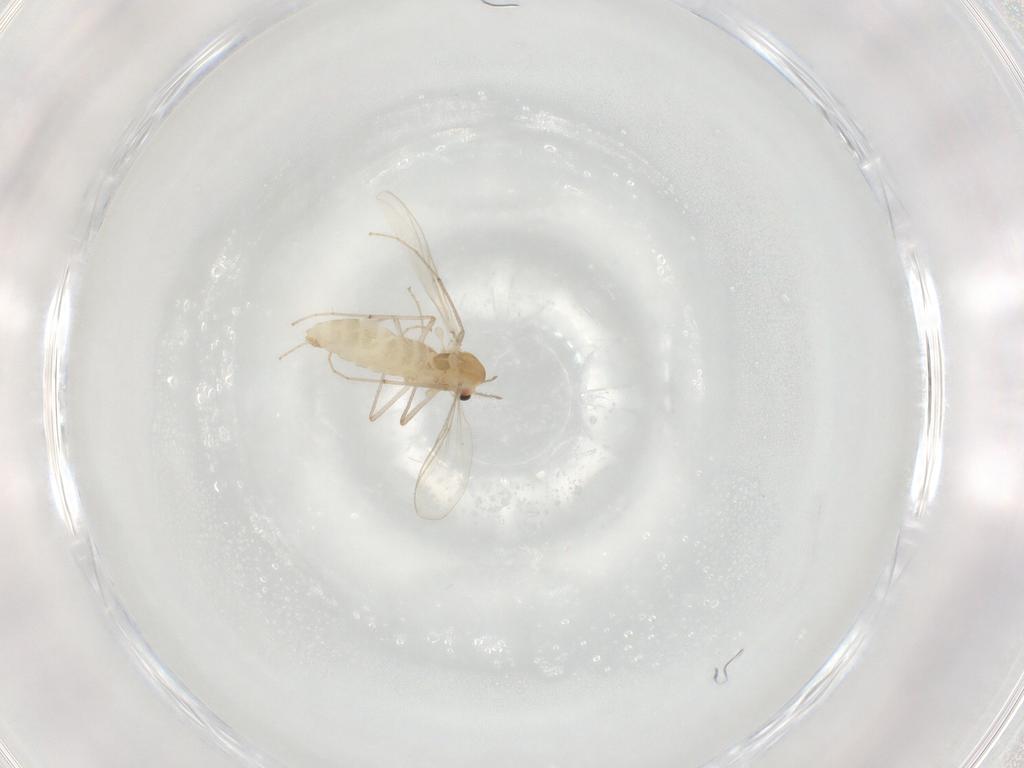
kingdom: Animalia
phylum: Arthropoda
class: Insecta
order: Diptera
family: Chironomidae
